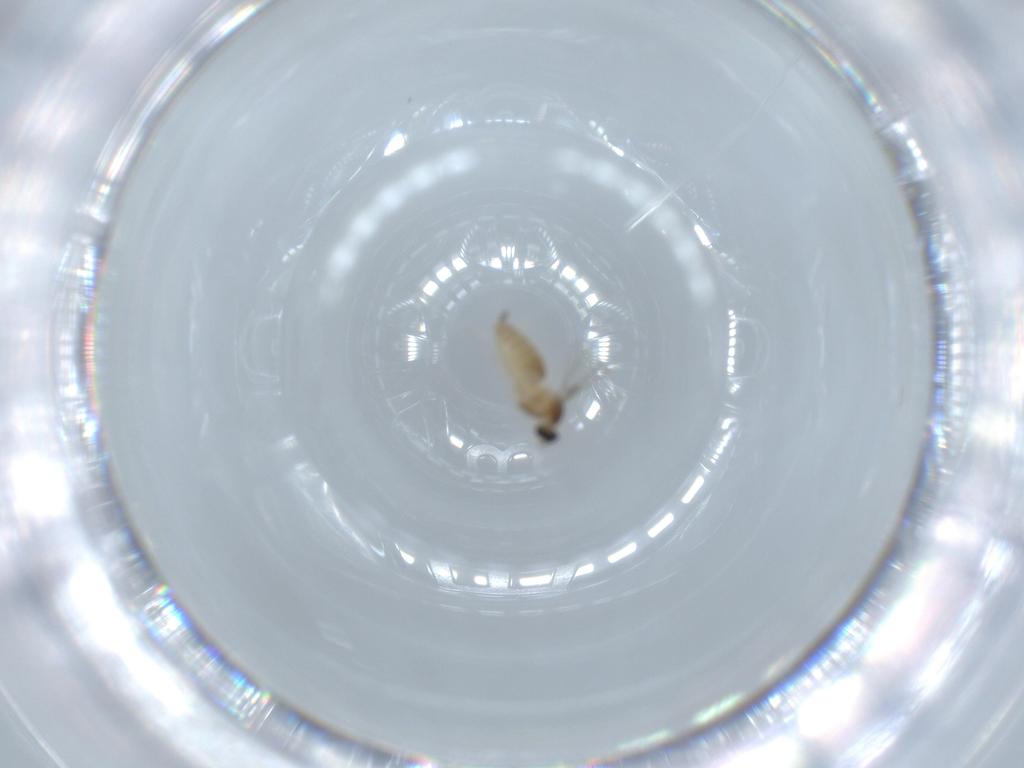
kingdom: Animalia
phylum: Arthropoda
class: Insecta
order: Diptera
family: Cecidomyiidae
